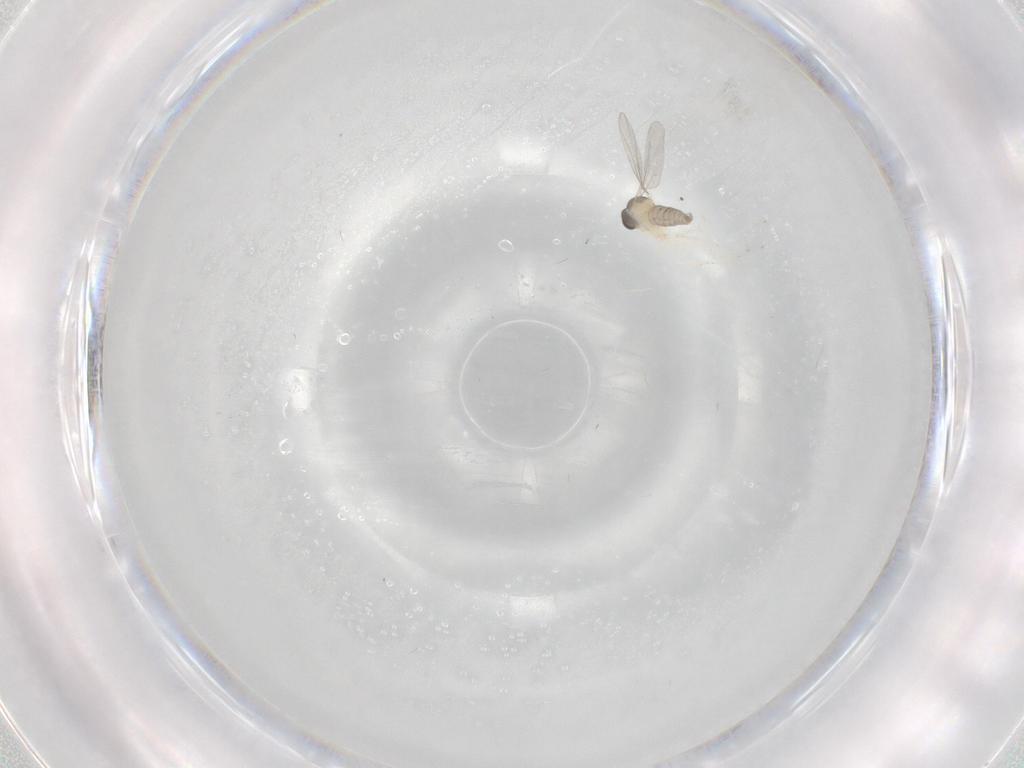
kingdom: Animalia
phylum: Arthropoda
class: Insecta
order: Diptera
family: Cecidomyiidae
